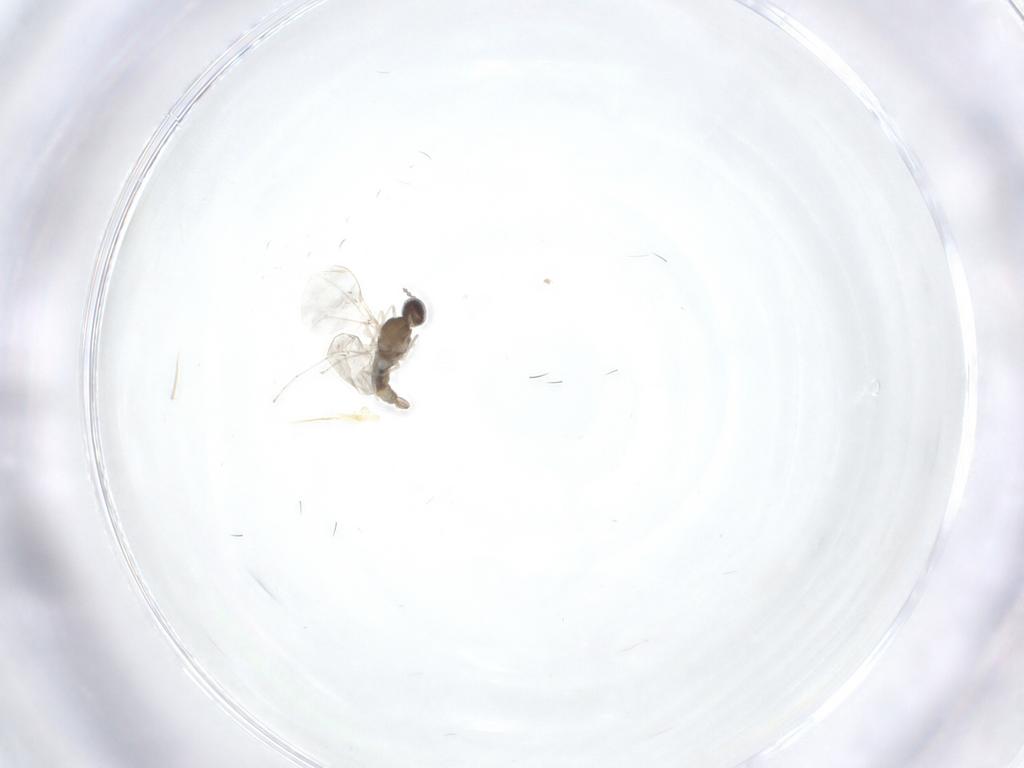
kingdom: Animalia
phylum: Arthropoda
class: Insecta
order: Diptera
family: Cecidomyiidae
